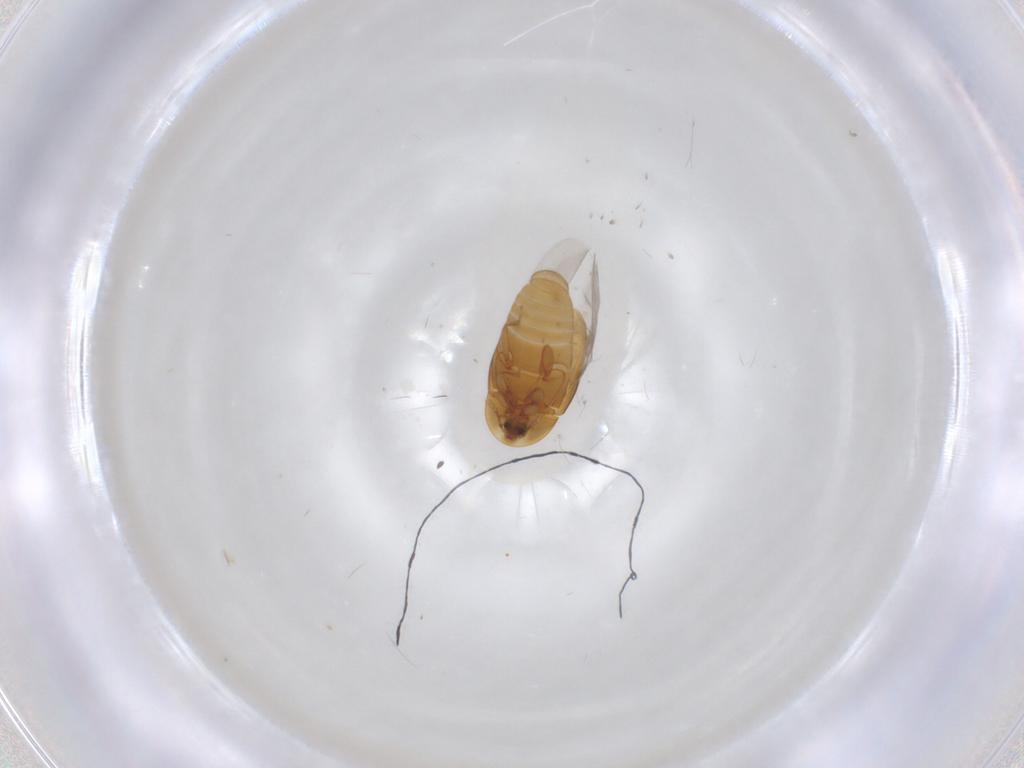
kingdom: Animalia
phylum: Arthropoda
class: Insecta
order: Coleoptera
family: Corylophidae
